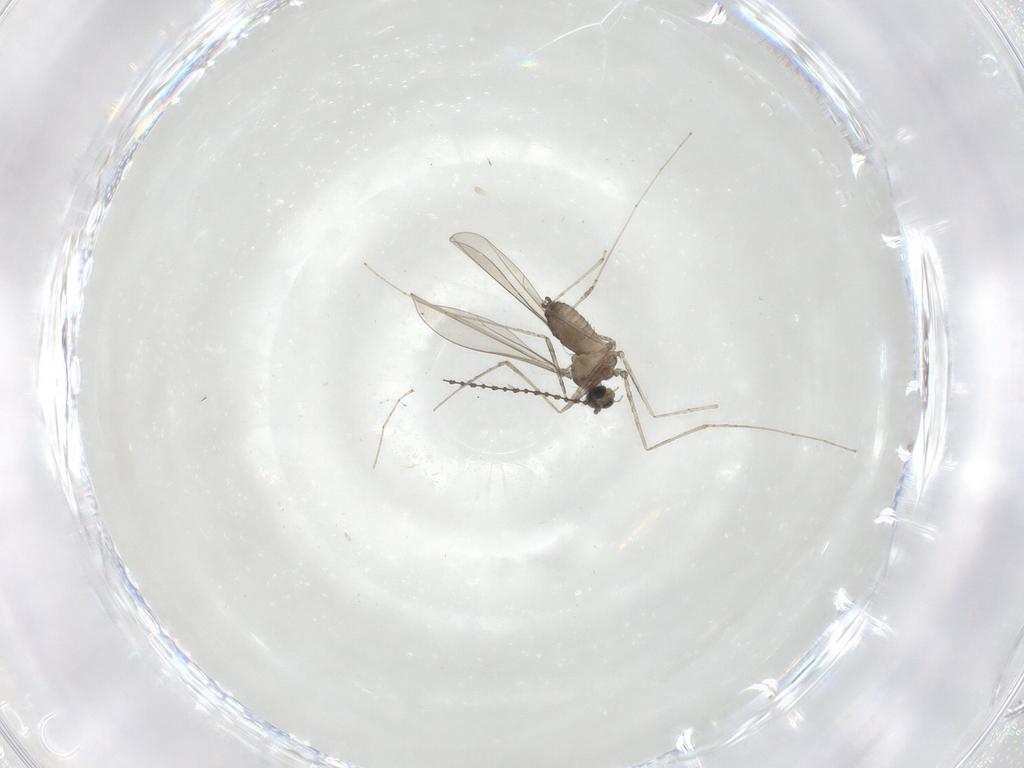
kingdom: Animalia
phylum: Arthropoda
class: Insecta
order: Diptera
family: Cecidomyiidae
